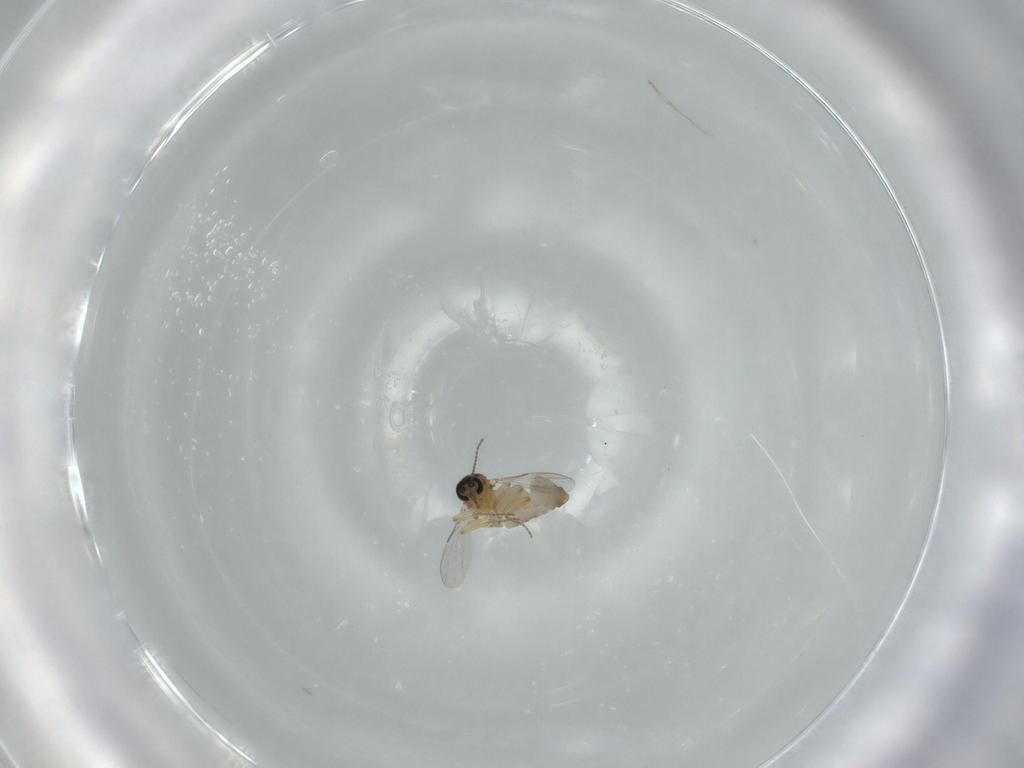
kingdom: Animalia
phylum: Arthropoda
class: Insecta
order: Diptera
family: Ceratopogonidae
